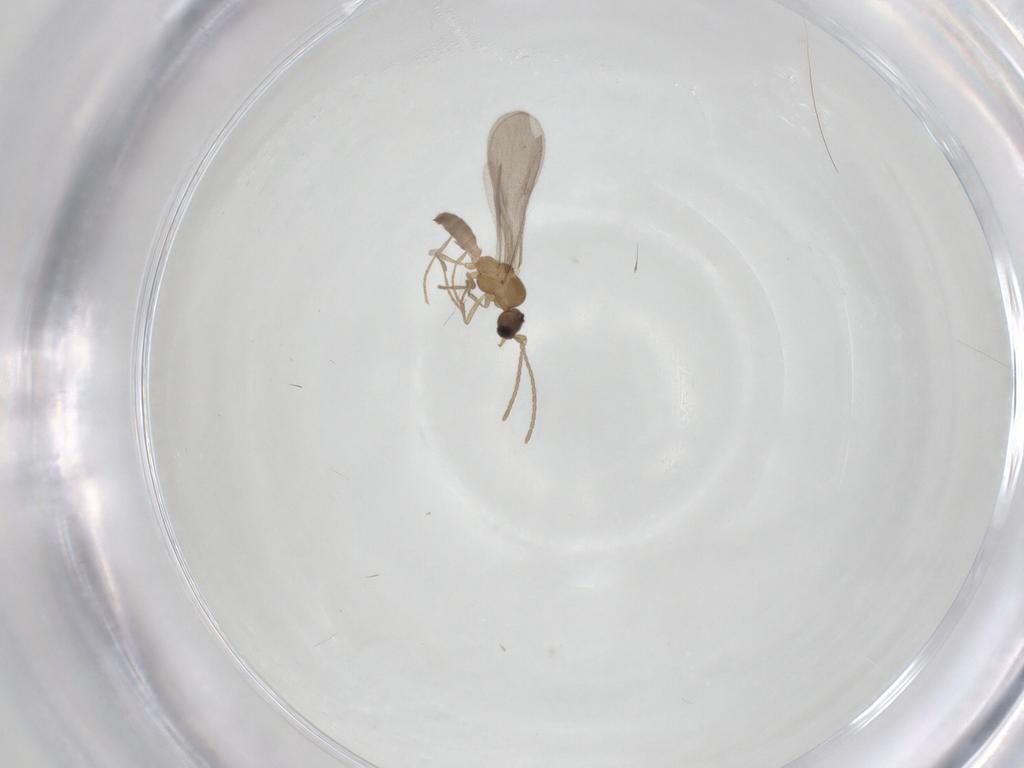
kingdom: Animalia
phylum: Arthropoda
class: Insecta
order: Hymenoptera
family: Formicidae
